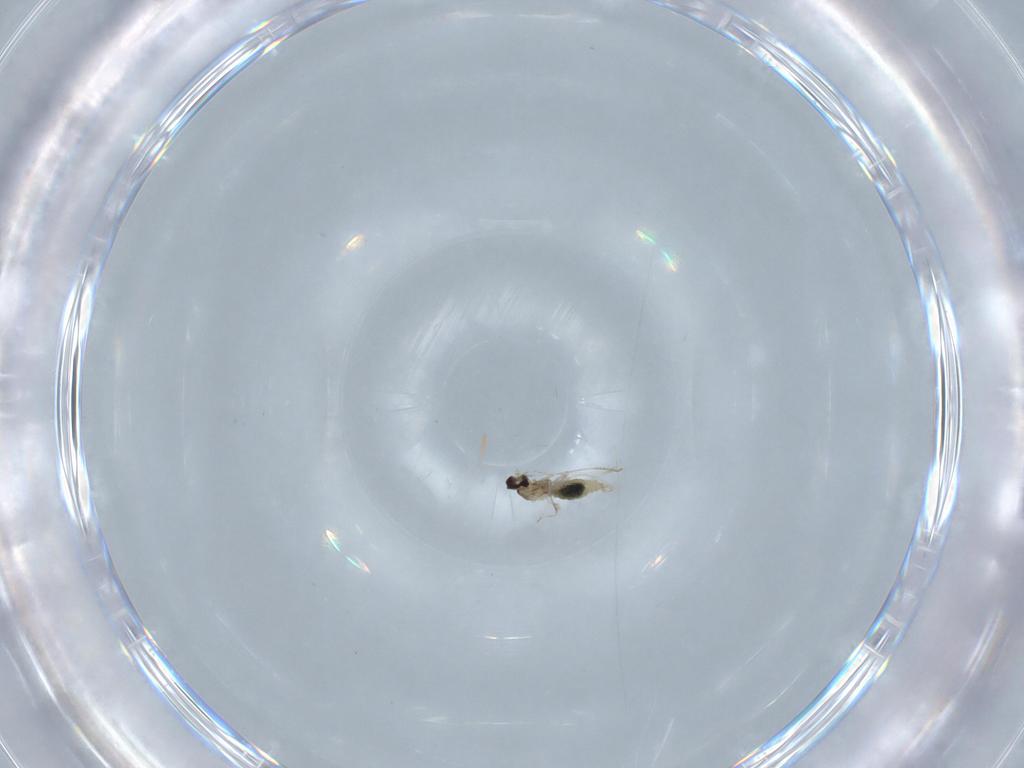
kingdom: Animalia
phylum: Arthropoda
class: Insecta
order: Diptera
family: Cecidomyiidae
